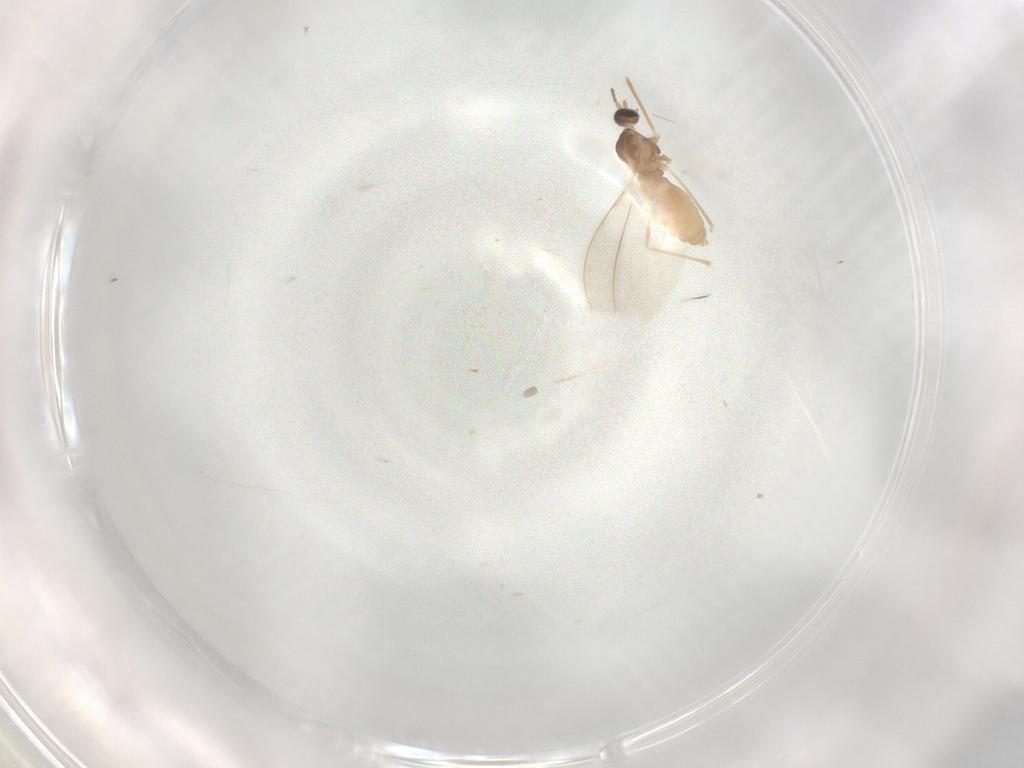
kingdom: Animalia
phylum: Arthropoda
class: Insecta
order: Diptera
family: Cecidomyiidae
